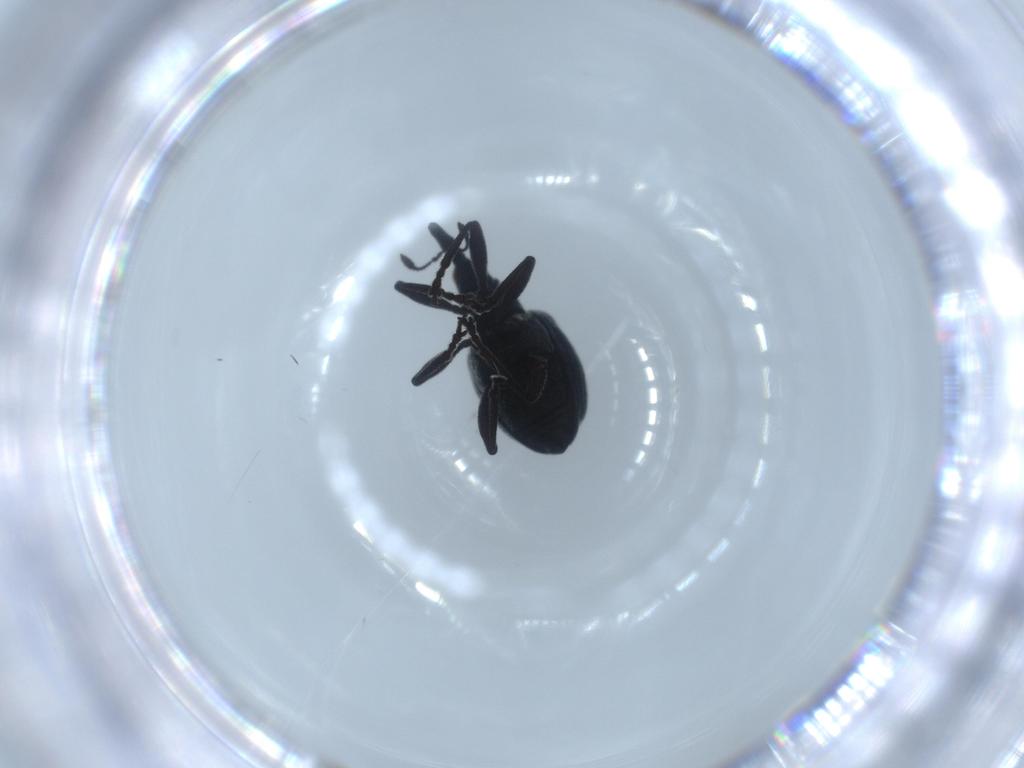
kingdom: Animalia
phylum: Arthropoda
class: Insecta
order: Coleoptera
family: Brentidae
